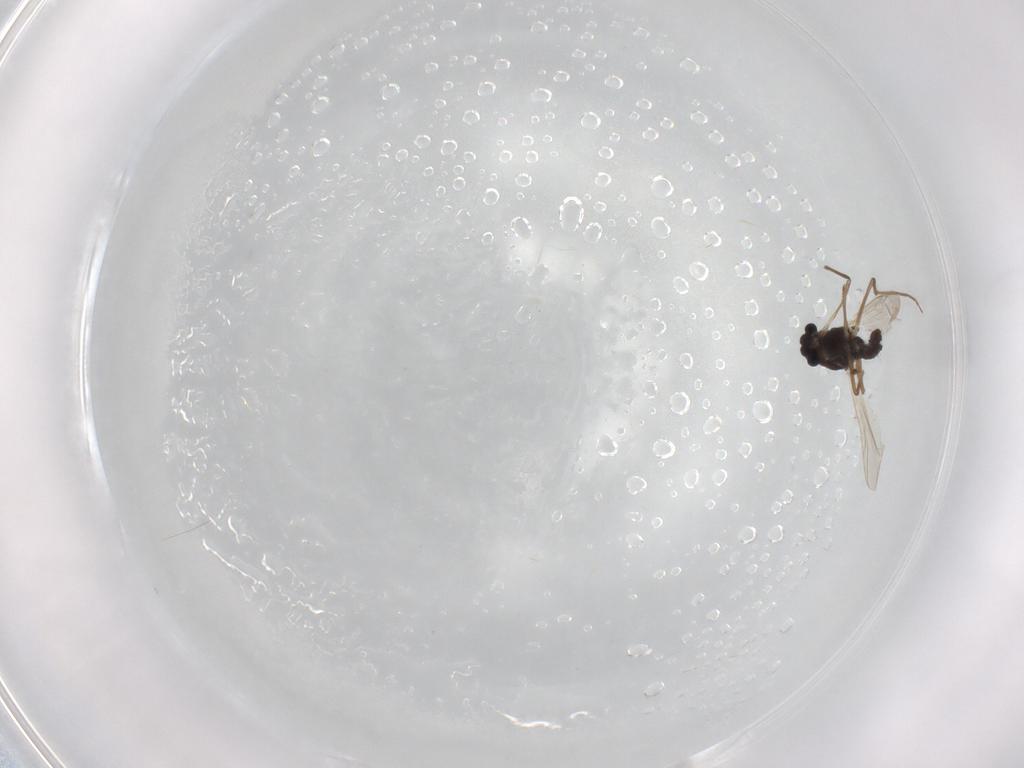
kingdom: Animalia
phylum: Arthropoda
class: Insecta
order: Diptera
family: Chironomidae
